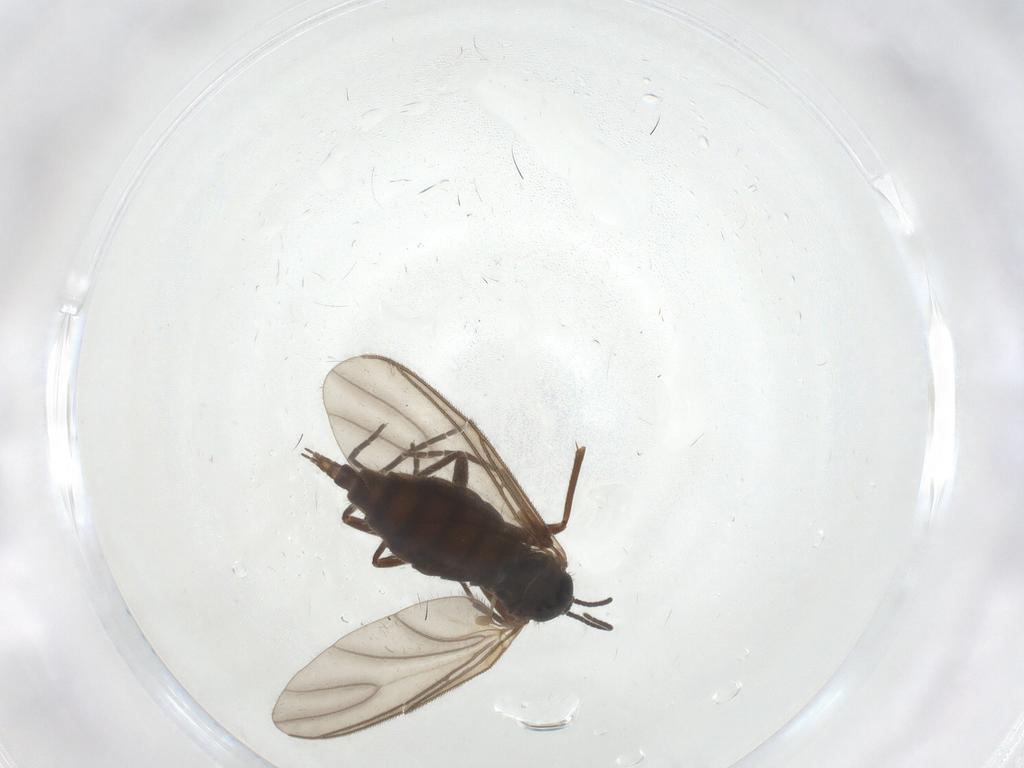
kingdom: Animalia
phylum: Arthropoda
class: Insecta
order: Diptera
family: Sciaridae
